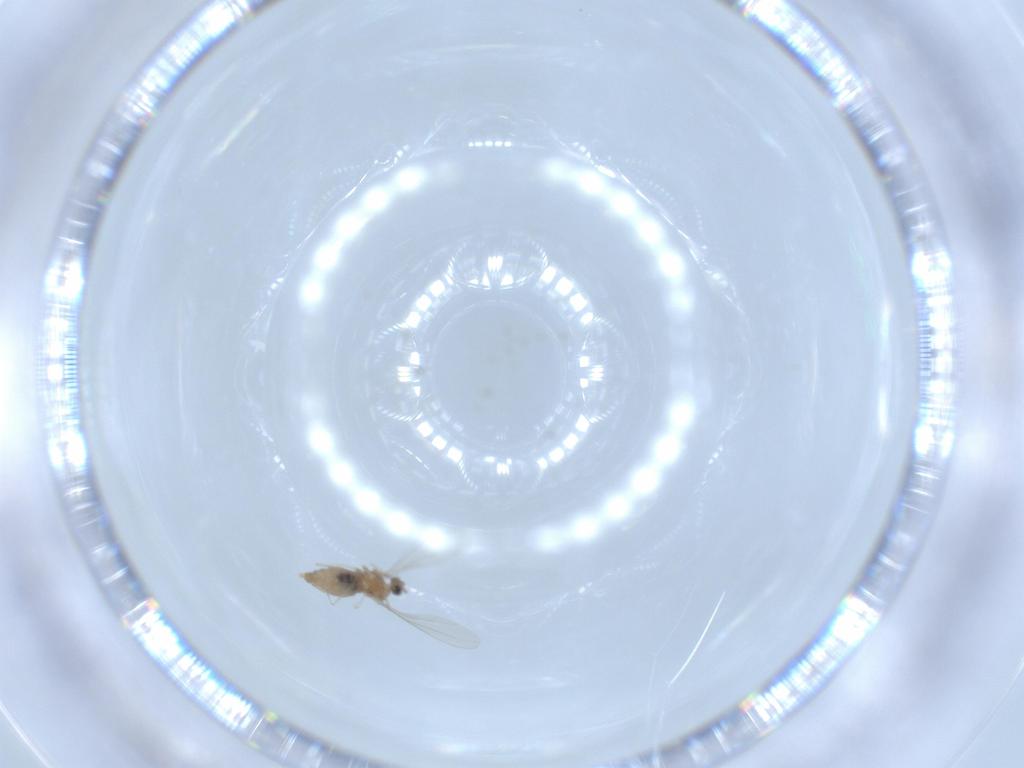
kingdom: Animalia
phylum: Arthropoda
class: Insecta
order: Diptera
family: Cecidomyiidae
